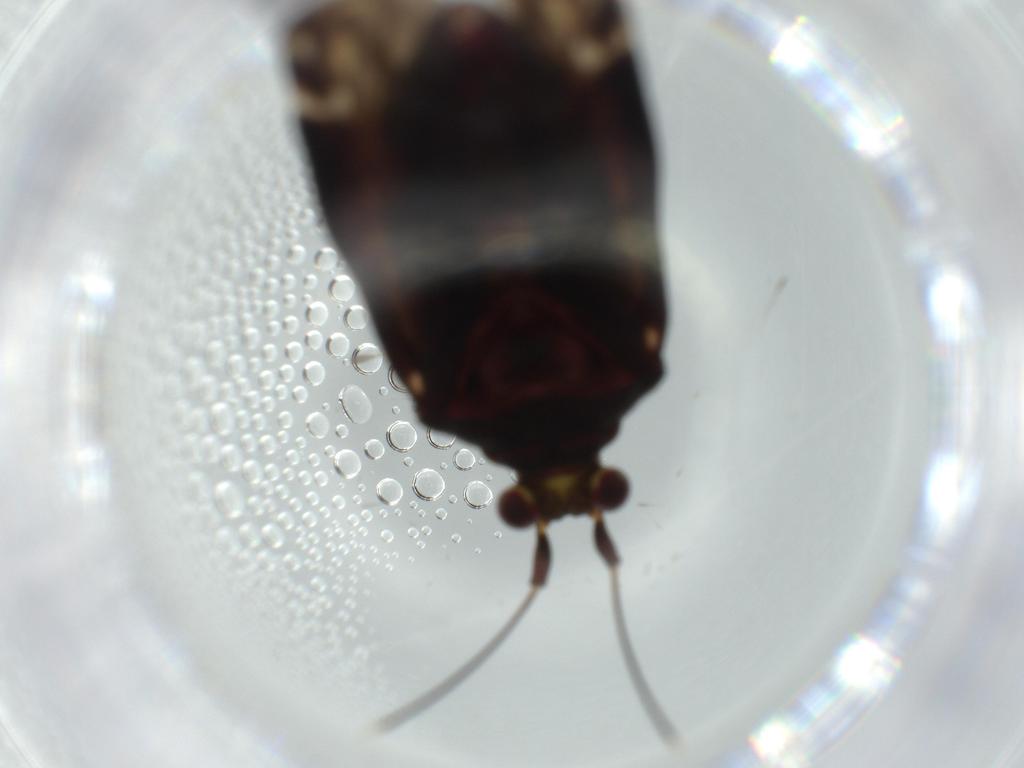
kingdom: Animalia
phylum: Arthropoda
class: Insecta
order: Hemiptera
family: Miridae
